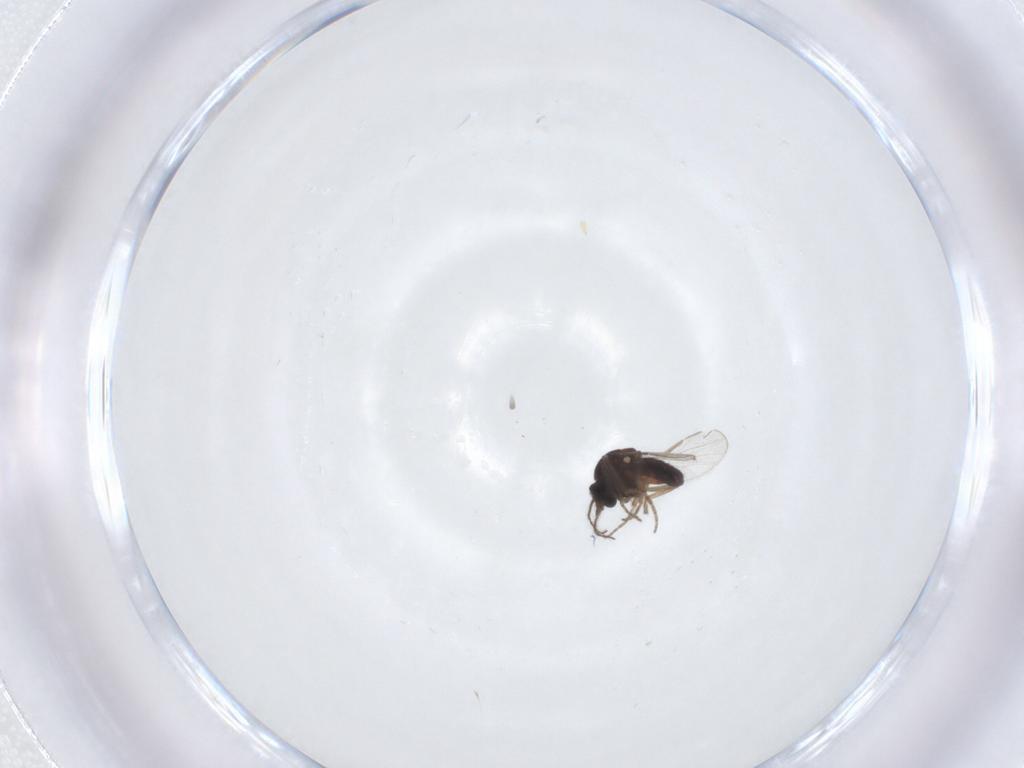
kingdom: Animalia
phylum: Arthropoda
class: Insecta
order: Diptera
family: Ceratopogonidae
